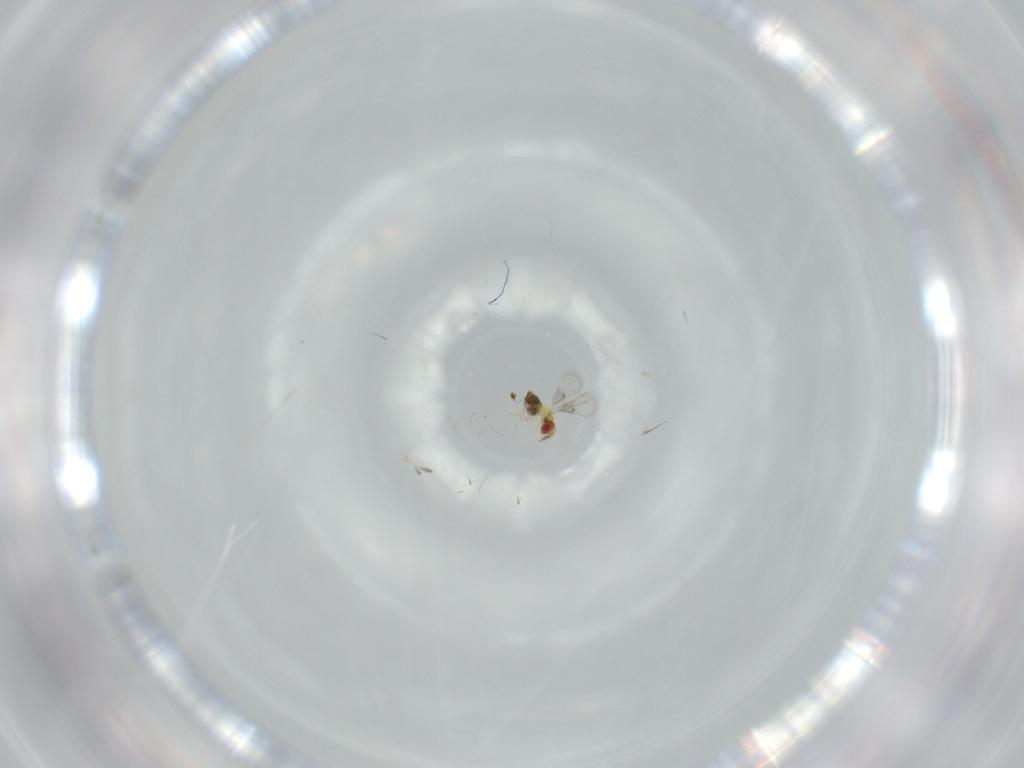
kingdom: Animalia
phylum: Arthropoda
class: Insecta
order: Hymenoptera
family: Trichogrammatidae
